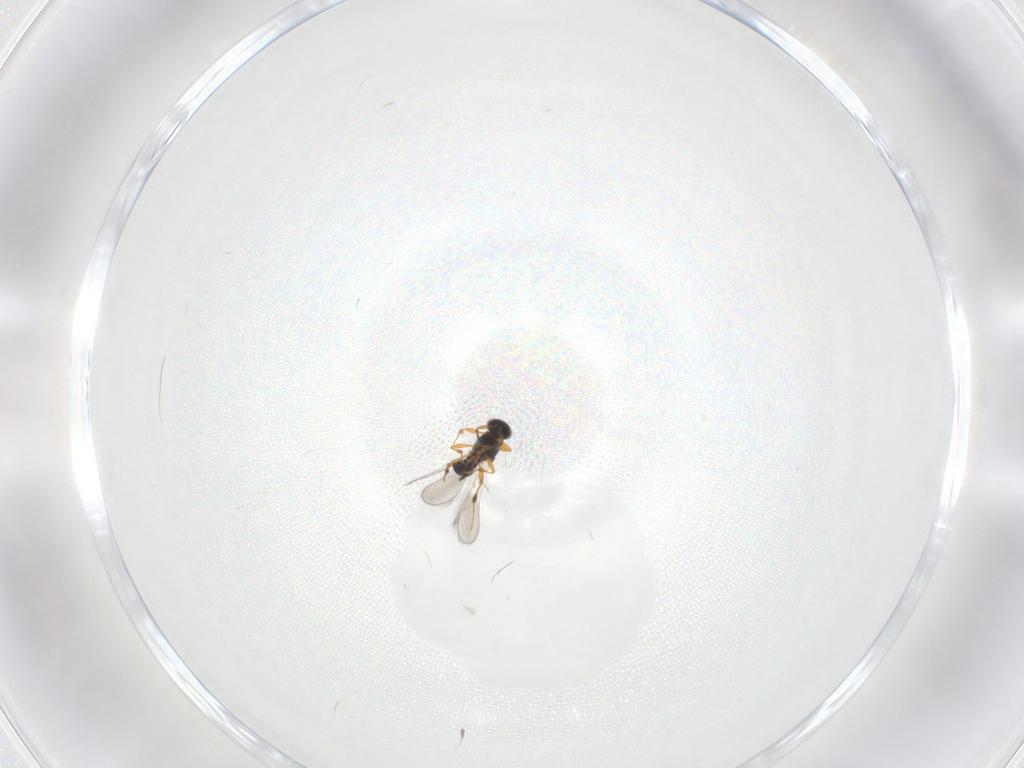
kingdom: Animalia
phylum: Arthropoda
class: Insecta
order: Hymenoptera
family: Platygastridae
